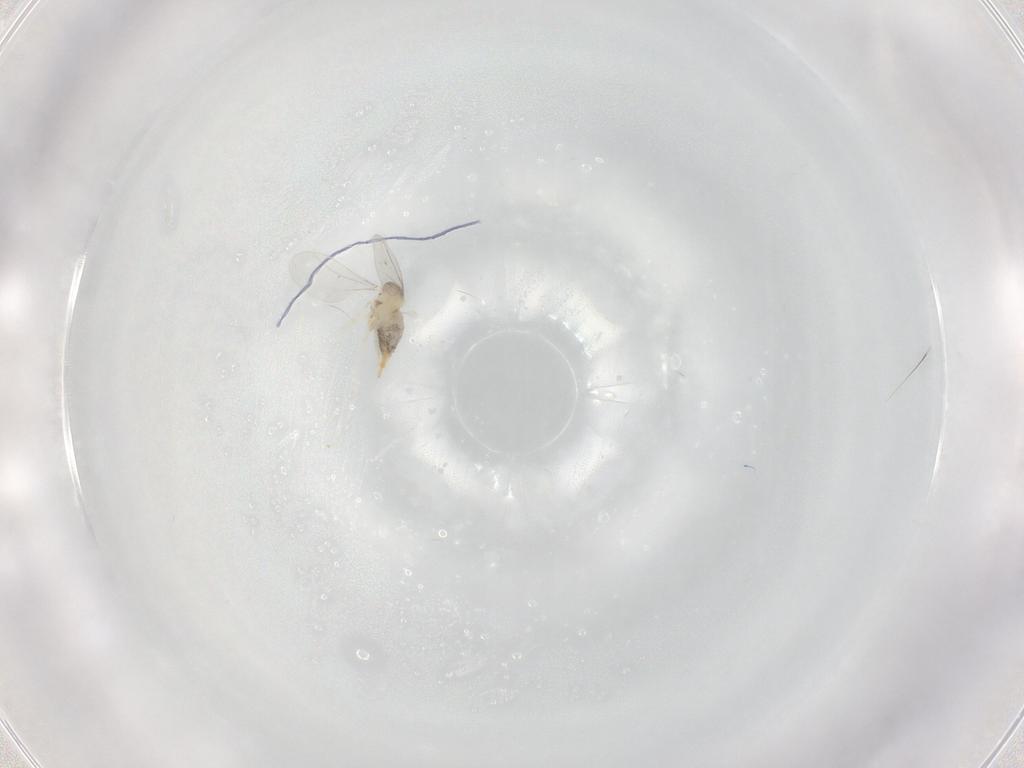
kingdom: Animalia
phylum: Arthropoda
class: Insecta
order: Diptera
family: Cecidomyiidae
